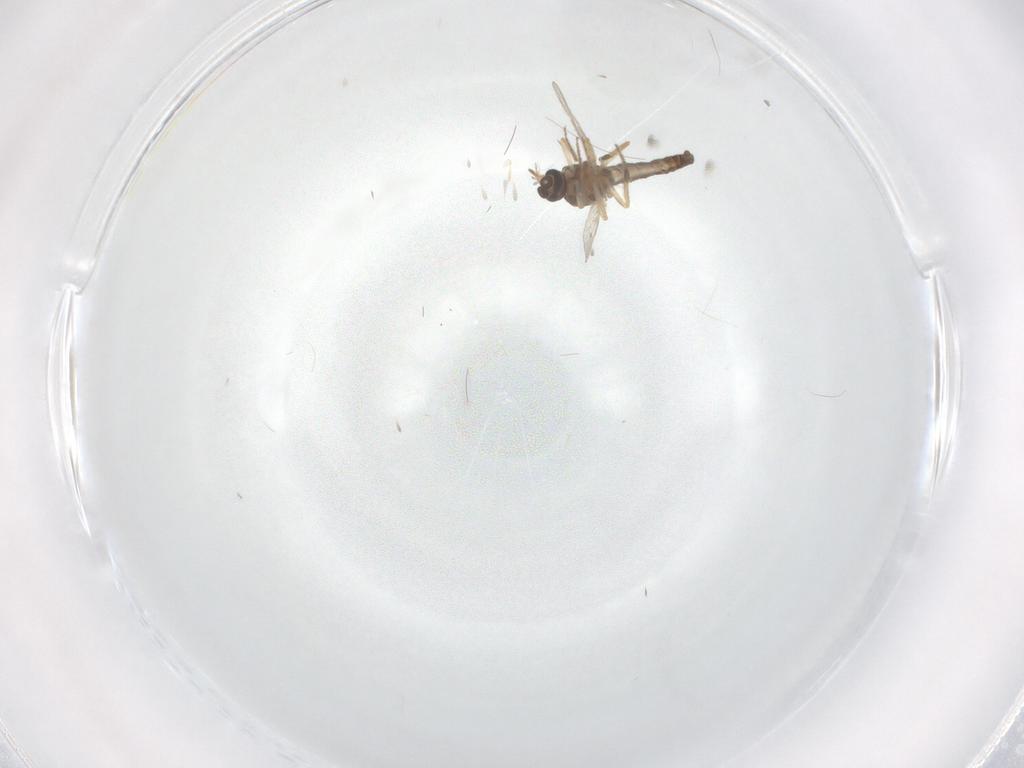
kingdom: Animalia
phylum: Arthropoda
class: Insecta
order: Diptera
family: Ceratopogonidae
